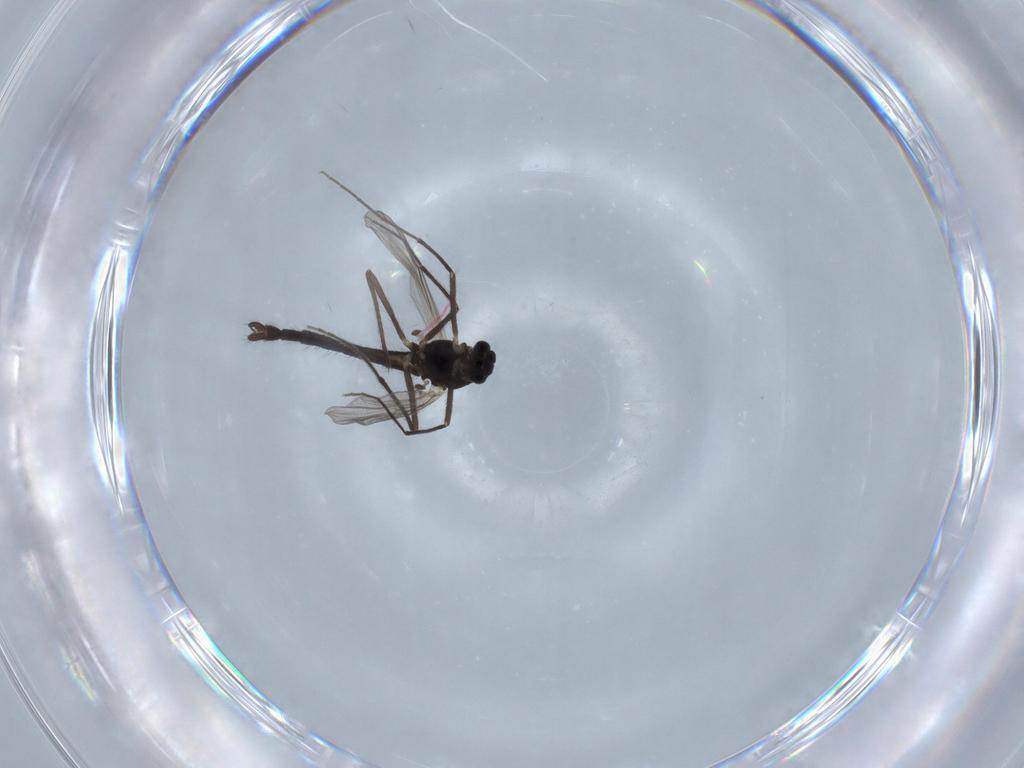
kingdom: Animalia
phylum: Arthropoda
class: Insecta
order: Diptera
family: Chironomidae
